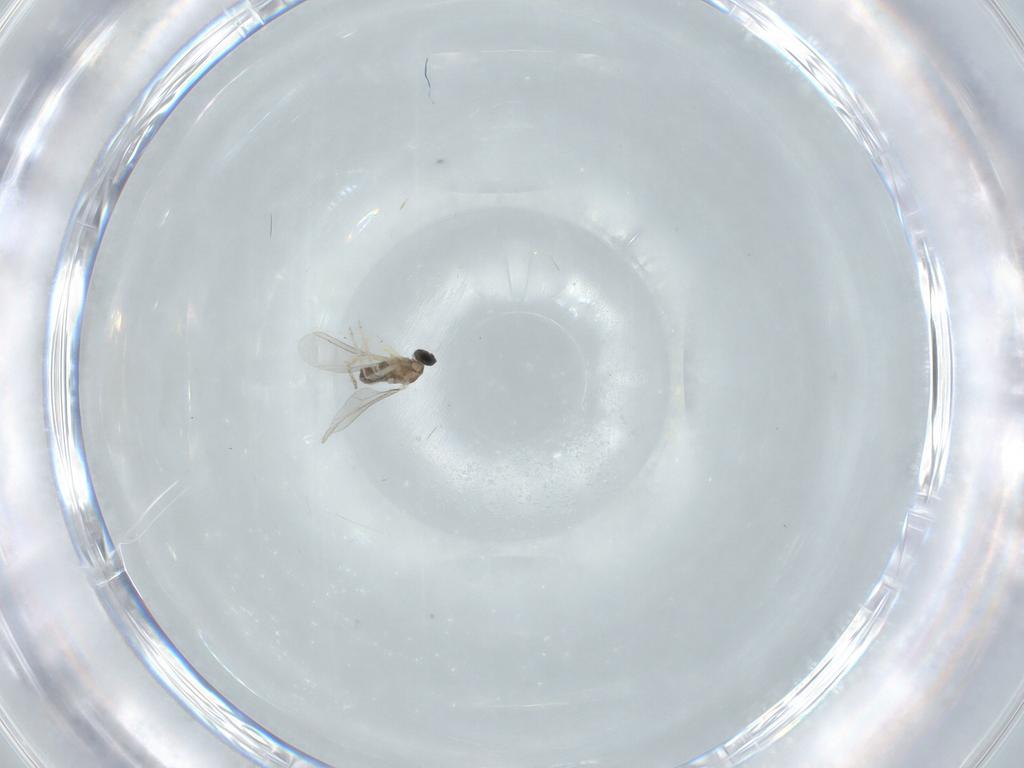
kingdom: Animalia
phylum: Arthropoda
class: Insecta
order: Diptera
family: Cecidomyiidae
